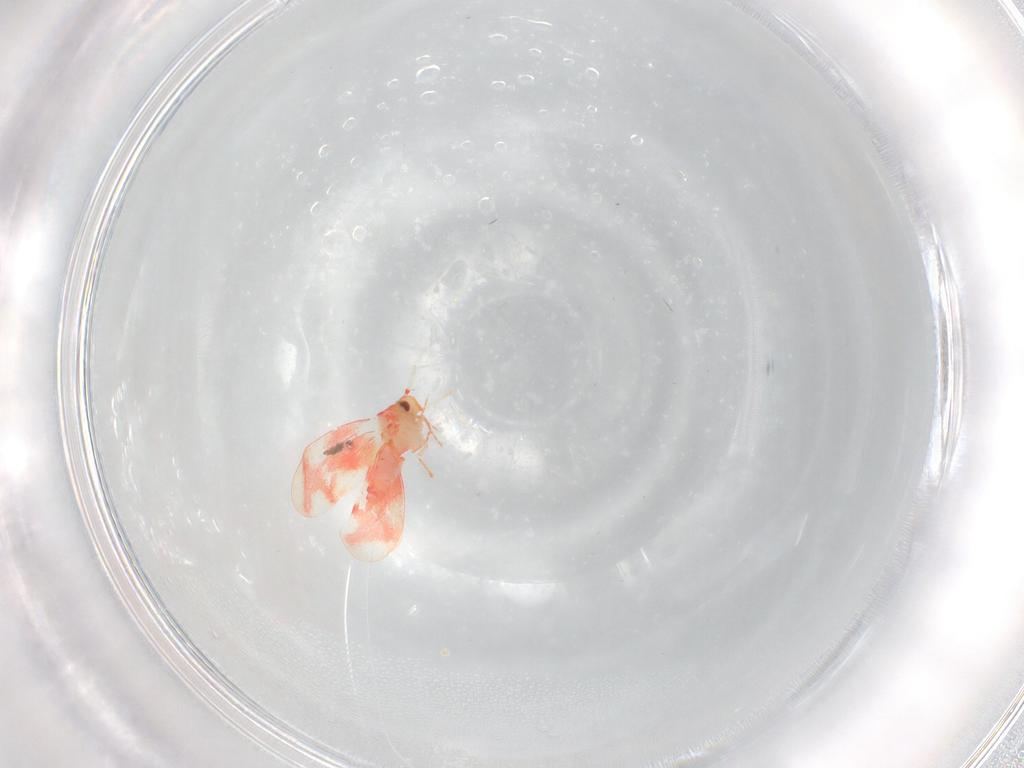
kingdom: Animalia
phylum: Arthropoda
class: Insecta
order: Hemiptera
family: Aleyrodidae
